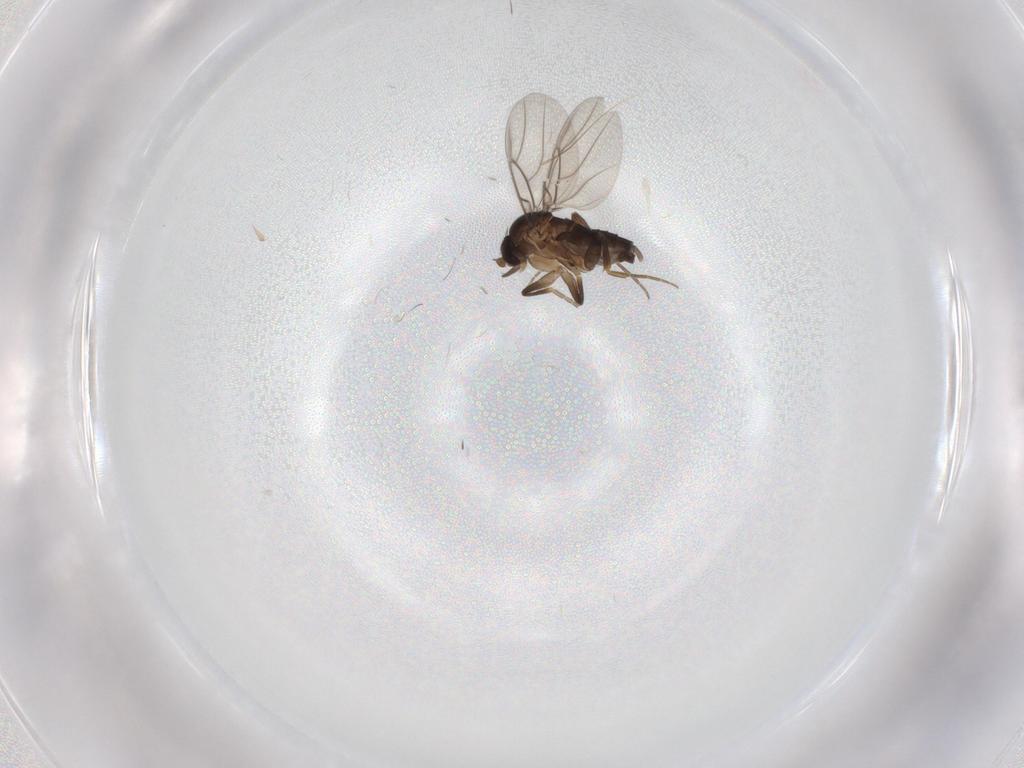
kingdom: Animalia
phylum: Arthropoda
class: Insecta
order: Diptera
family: Phoridae
